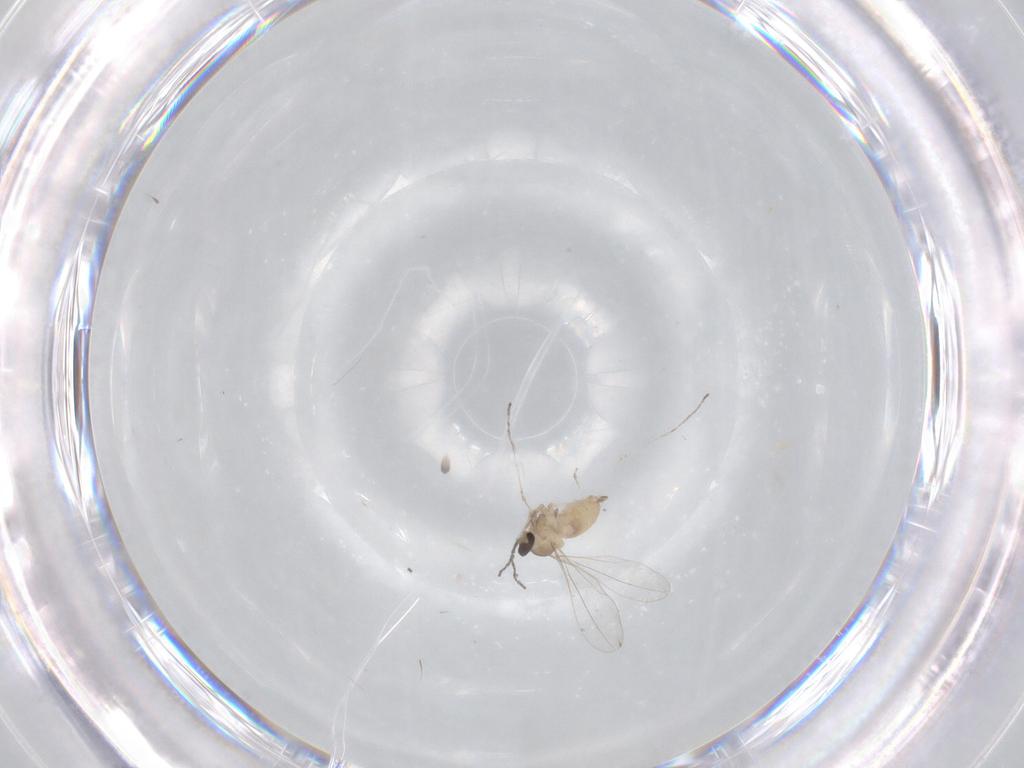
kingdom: Animalia
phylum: Arthropoda
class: Insecta
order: Diptera
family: Cecidomyiidae
